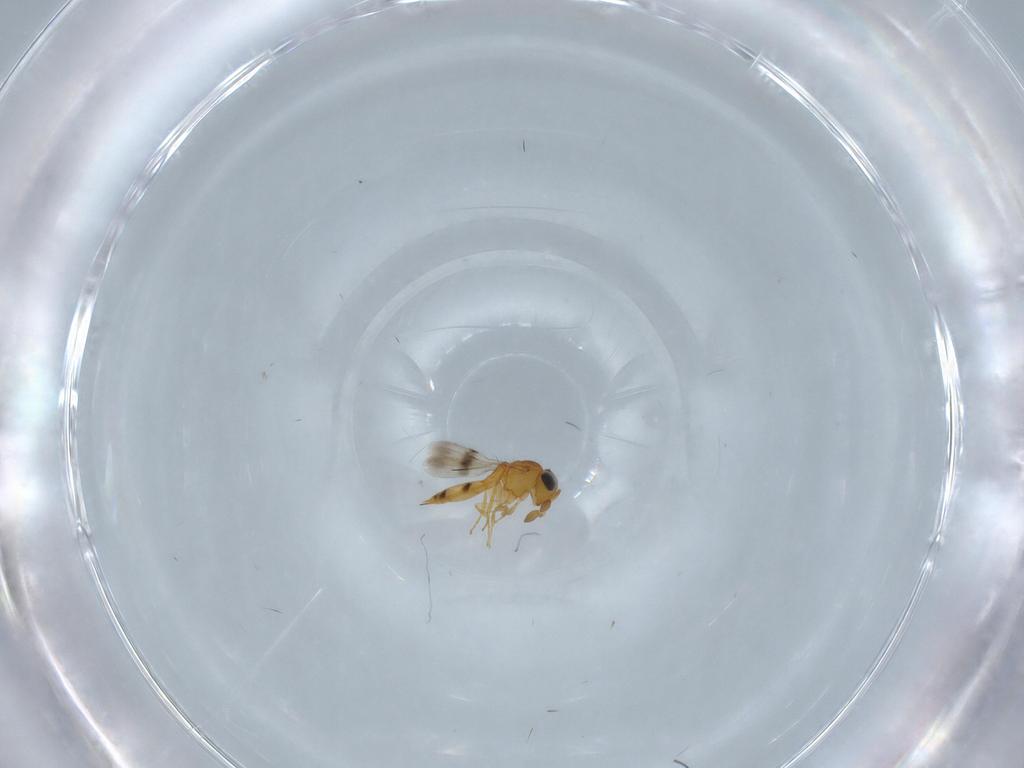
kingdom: Animalia
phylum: Arthropoda
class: Insecta
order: Hymenoptera
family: Scelionidae
